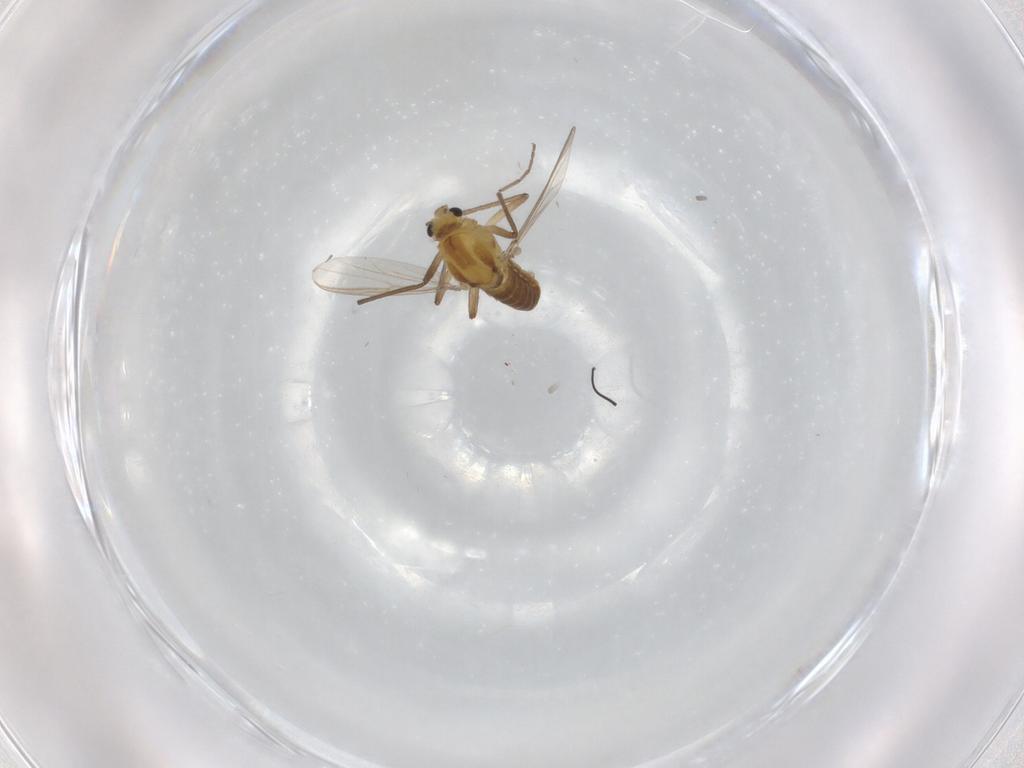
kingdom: Animalia
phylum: Arthropoda
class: Insecta
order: Diptera
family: Chironomidae
